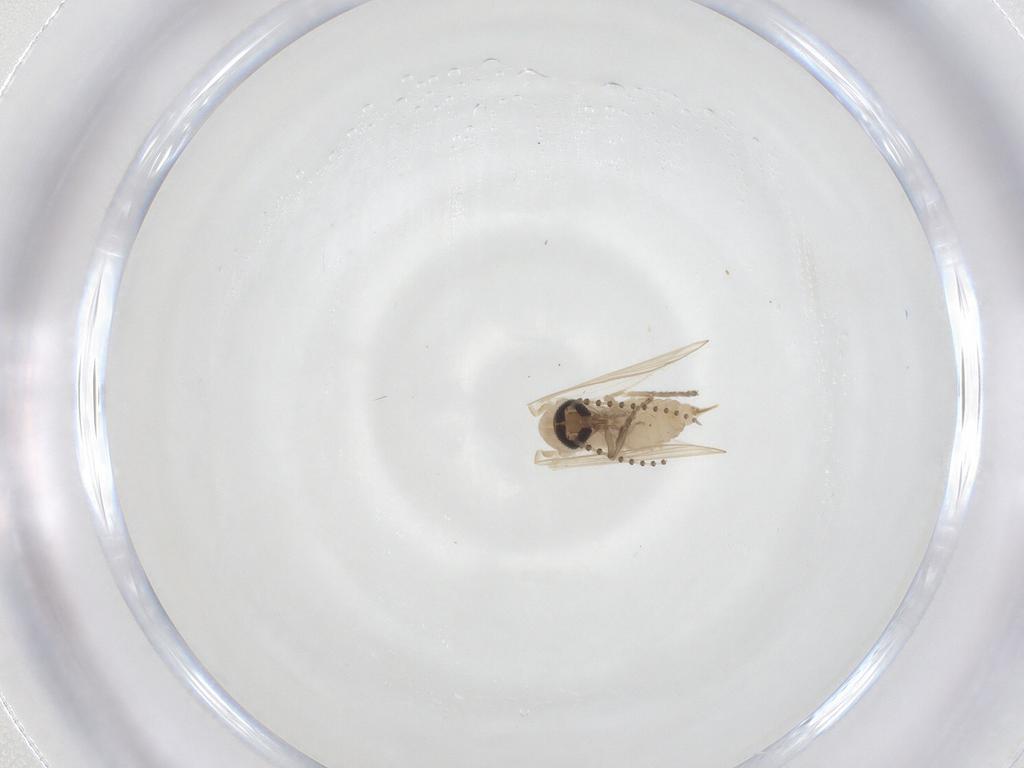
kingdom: Animalia
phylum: Arthropoda
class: Insecta
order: Diptera
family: Psychodidae
